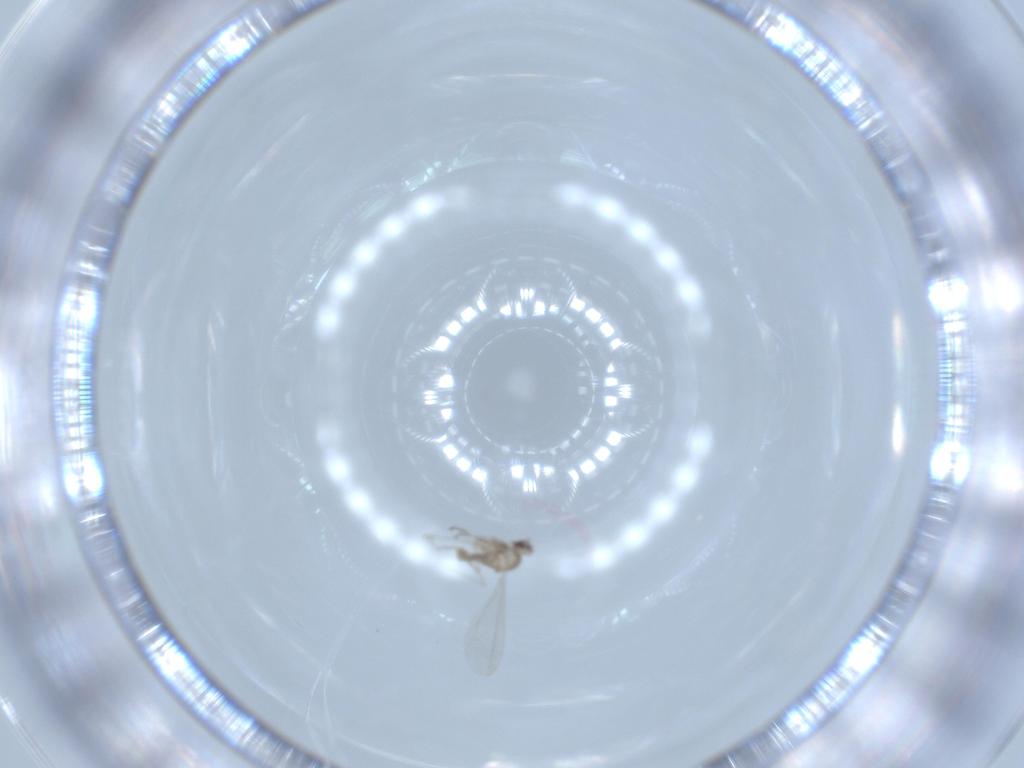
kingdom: Animalia
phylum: Arthropoda
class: Insecta
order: Diptera
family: Cecidomyiidae
